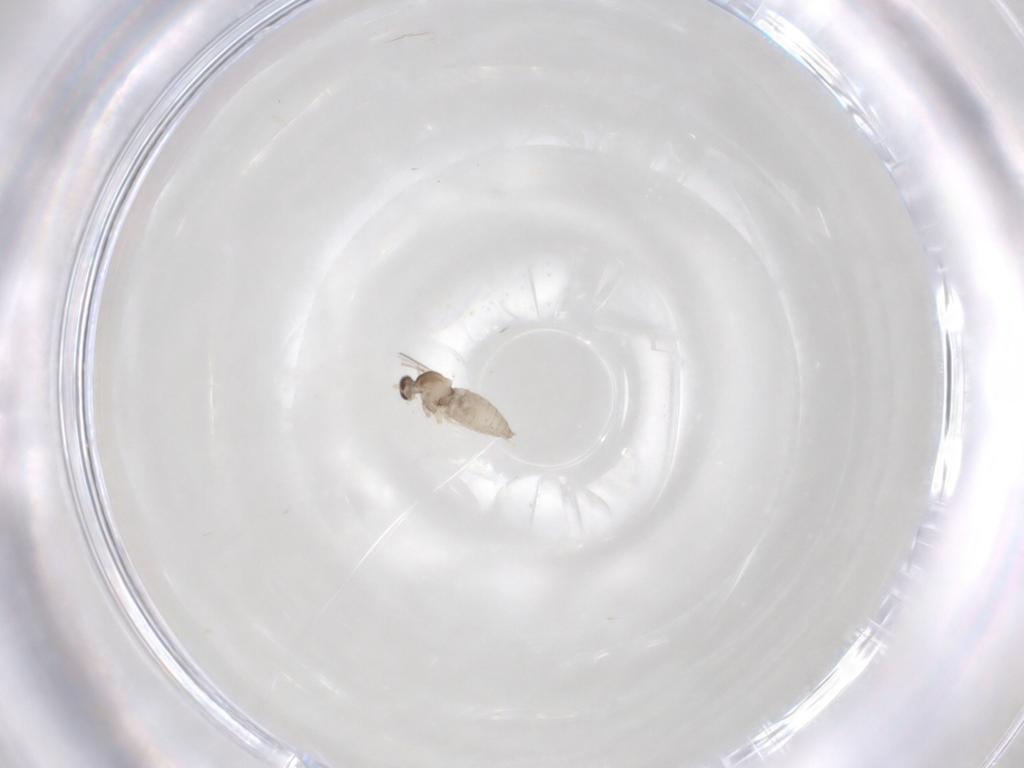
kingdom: Animalia
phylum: Arthropoda
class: Insecta
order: Diptera
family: Cecidomyiidae
